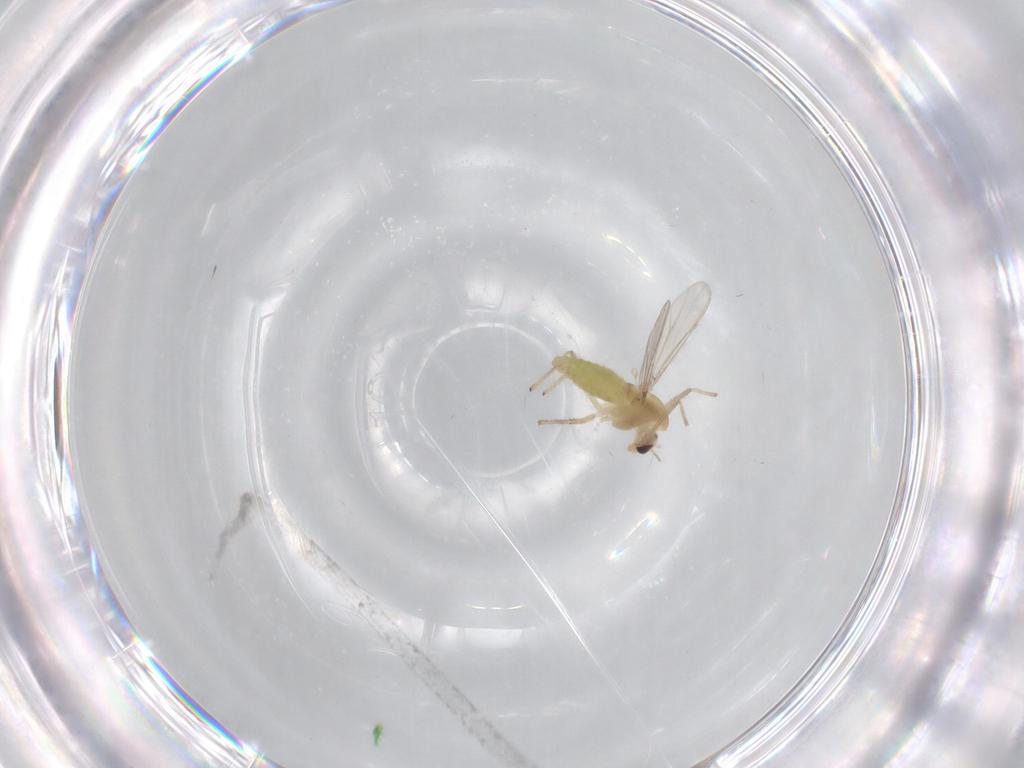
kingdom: Animalia
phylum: Arthropoda
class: Insecta
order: Diptera
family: Chironomidae
